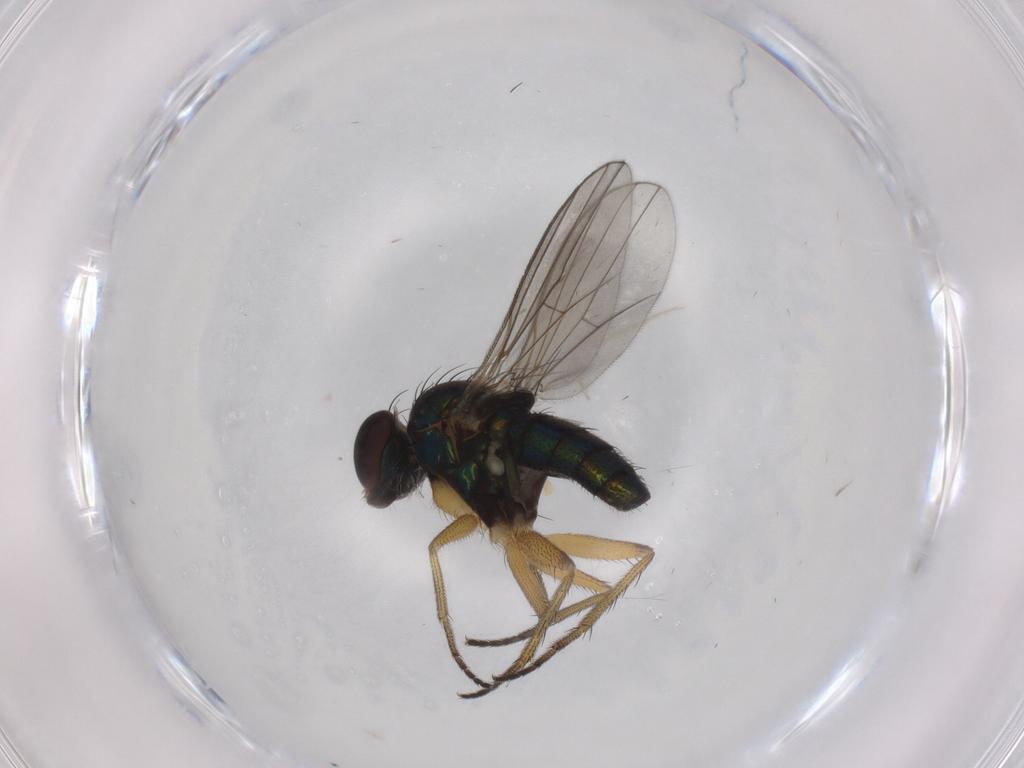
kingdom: Animalia
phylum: Arthropoda
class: Insecta
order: Diptera
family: Dolichopodidae
